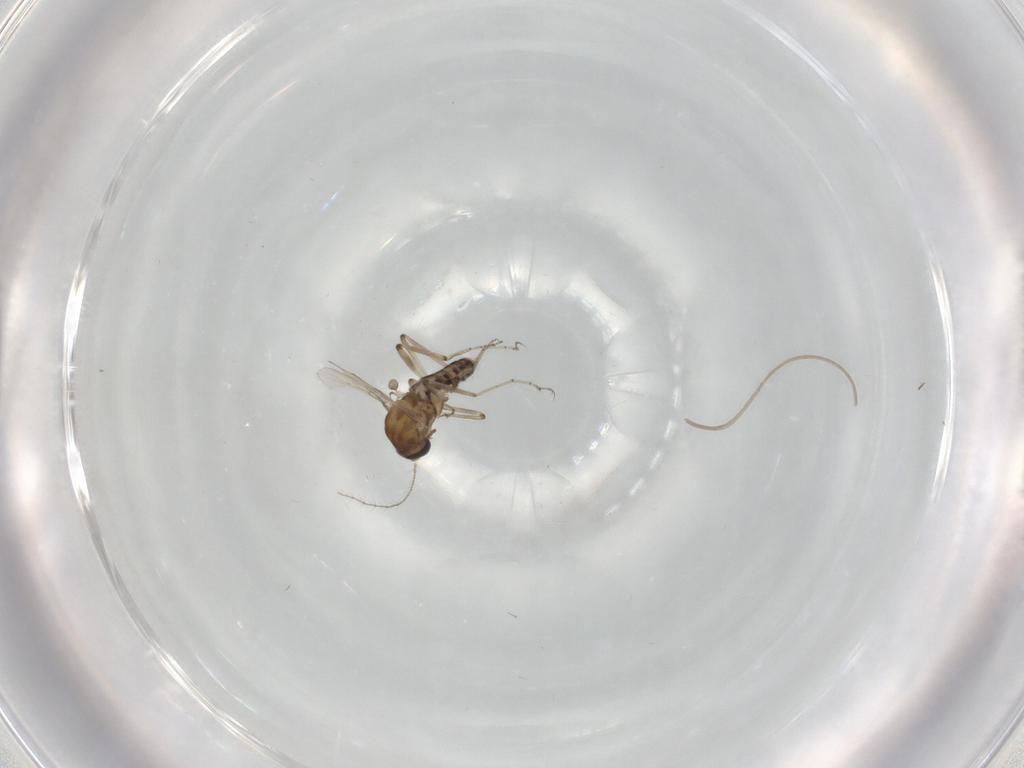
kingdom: Animalia
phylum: Arthropoda
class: Insecta
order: Diptera
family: Ceratopogonidae
